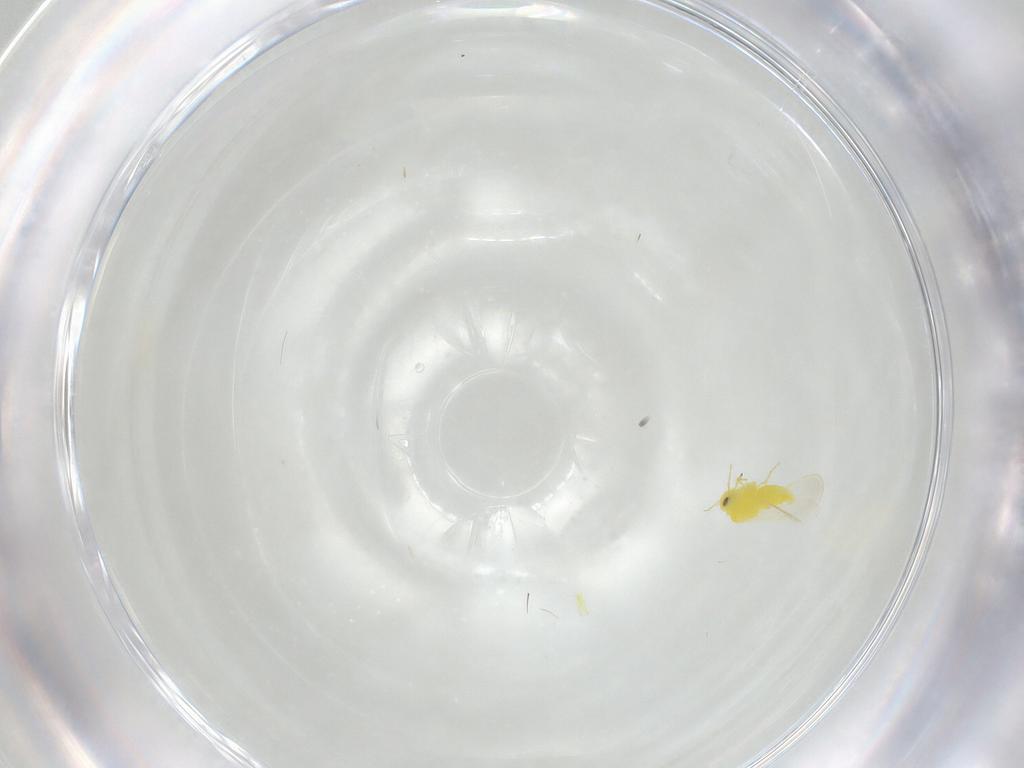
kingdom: Animalia
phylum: Arthropoda
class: Insecta
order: Hemiptera
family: Aleyrodidae
